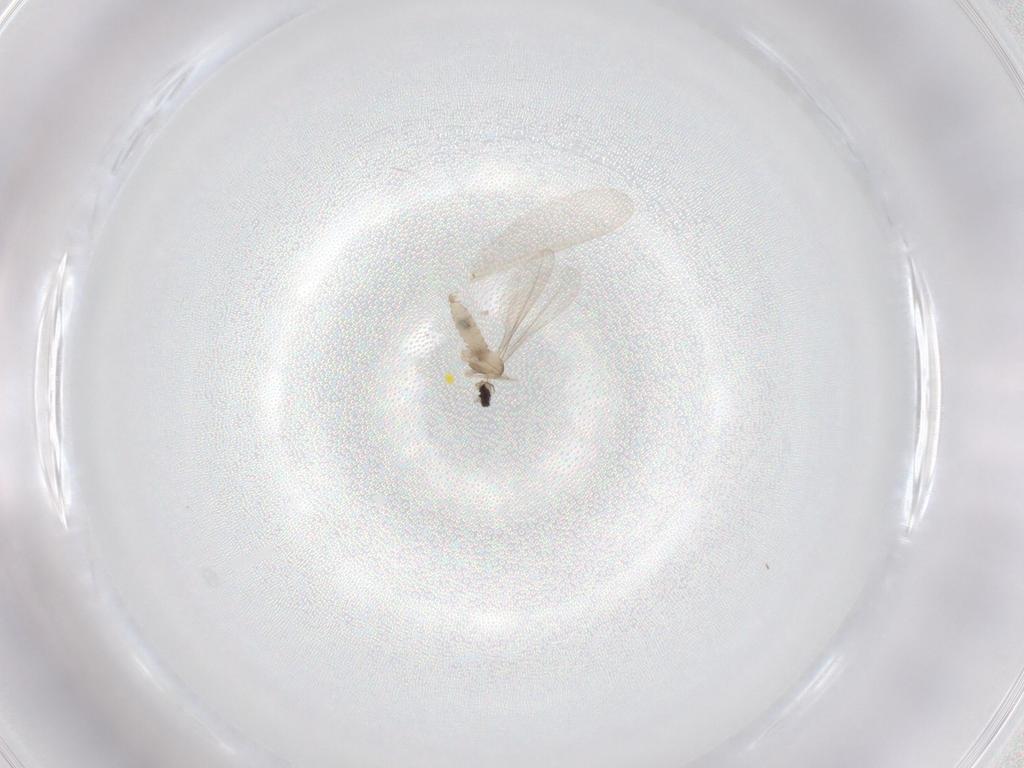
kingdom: Animalia
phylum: Arthropoda
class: Insecta
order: Diptera
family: Cecidomyiidae
